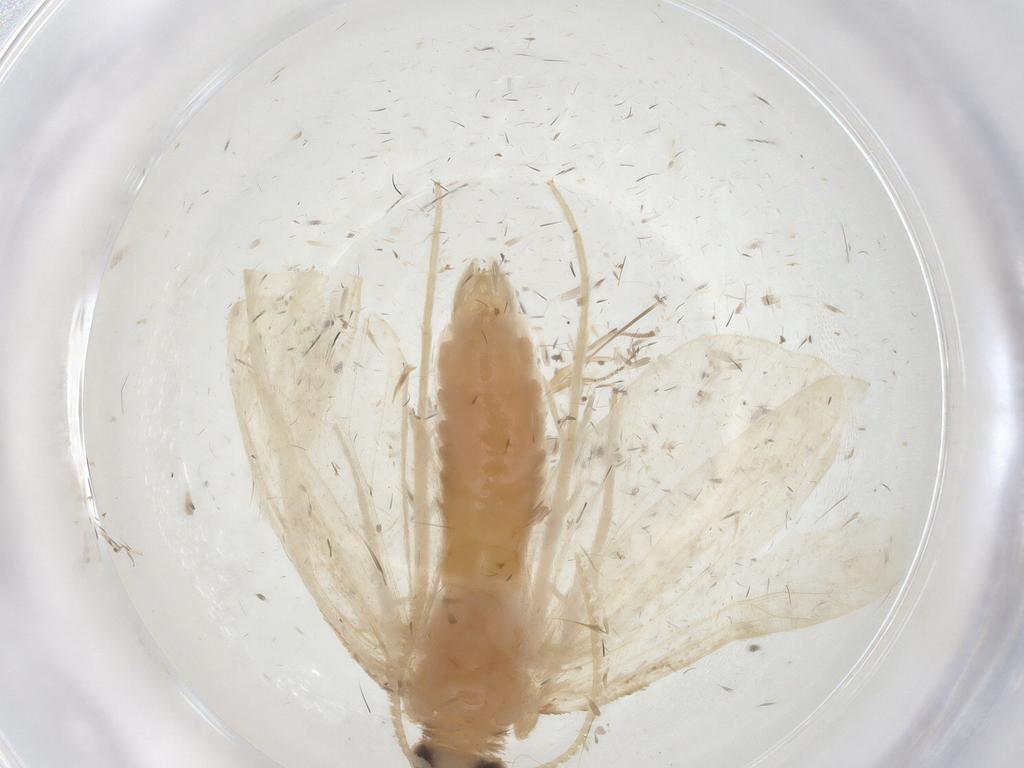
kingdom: Animalia
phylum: Arthropoda
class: Insecta
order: Lepidoptera
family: Crambidae
